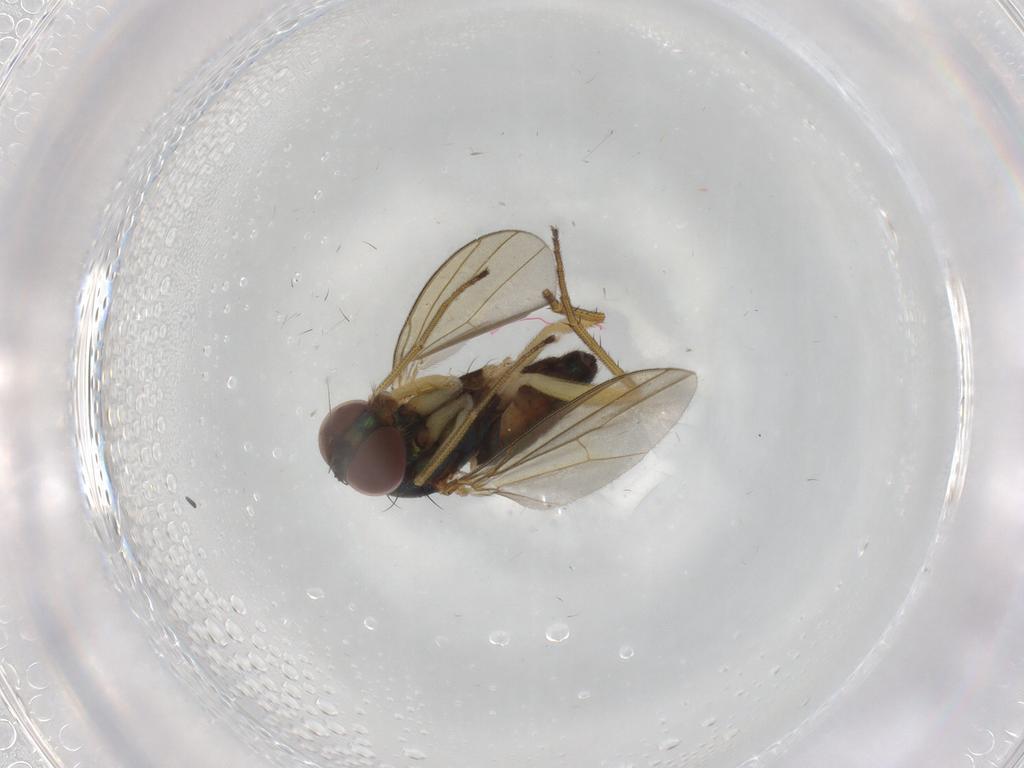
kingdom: Animalia
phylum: Arthropoda
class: Insecta
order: Diptera
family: Dolichopodidae
